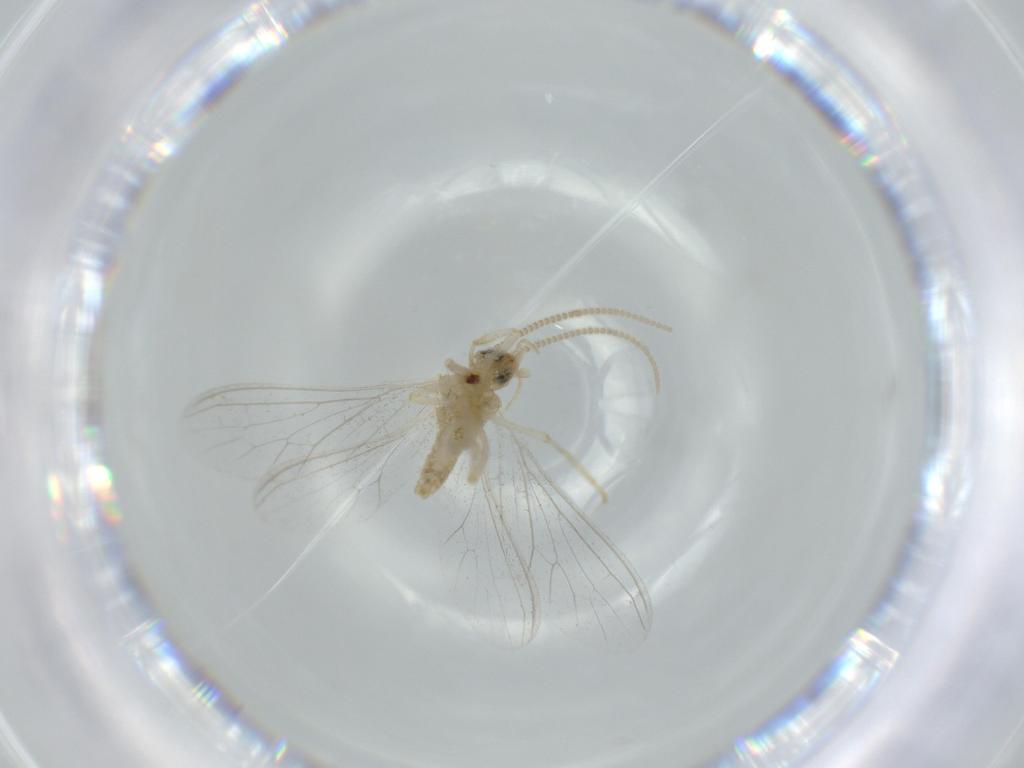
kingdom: Animalia
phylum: Arthropoda
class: Insecta
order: Neuroptera
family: Coniopterygidae
